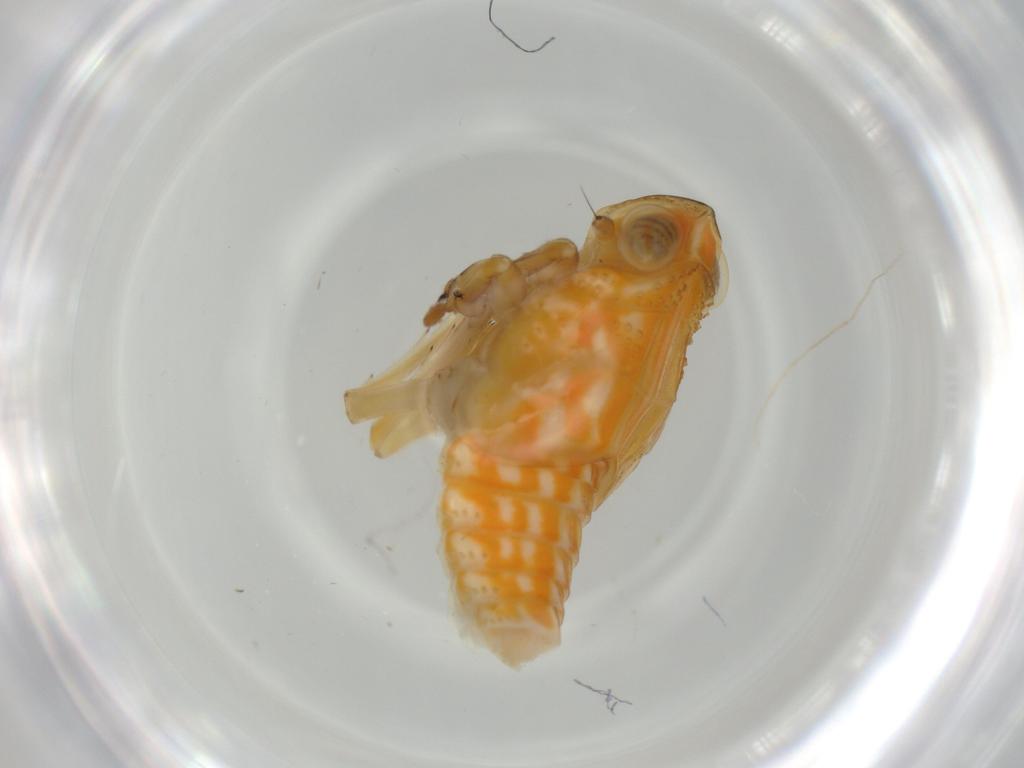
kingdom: Animalia
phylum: Arthropoda
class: Insecta
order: Hemiptera
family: Issidae
